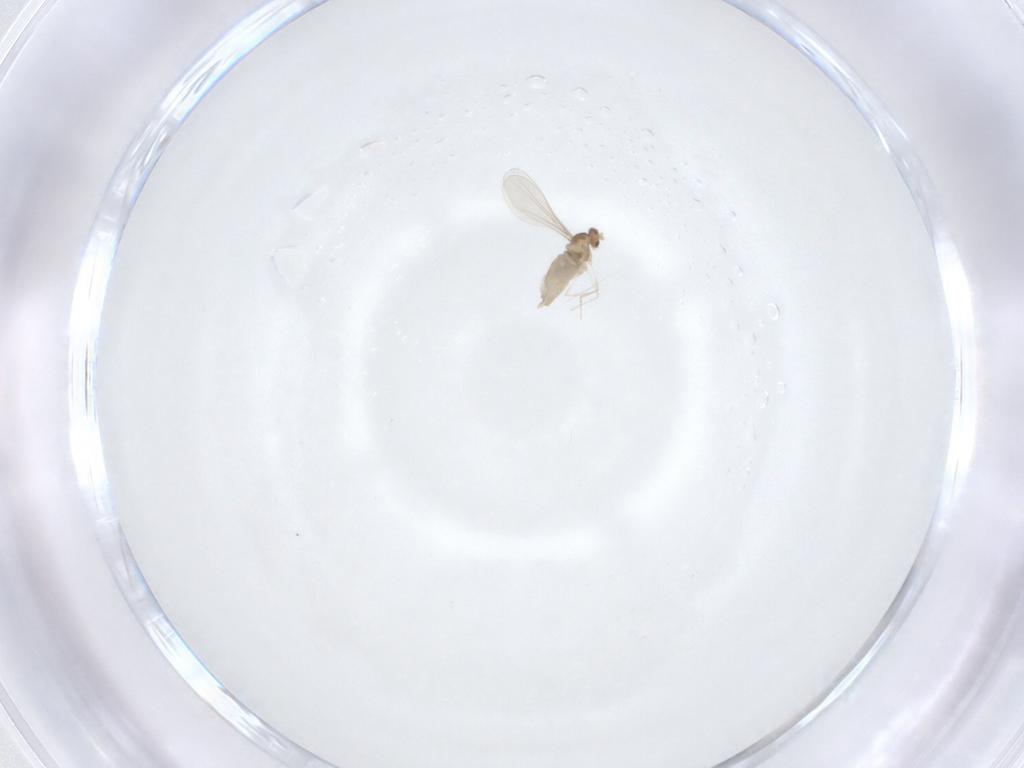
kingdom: Animalia
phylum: Arthropoda
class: Insecta
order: Diptera
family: Cecidomyiidae
